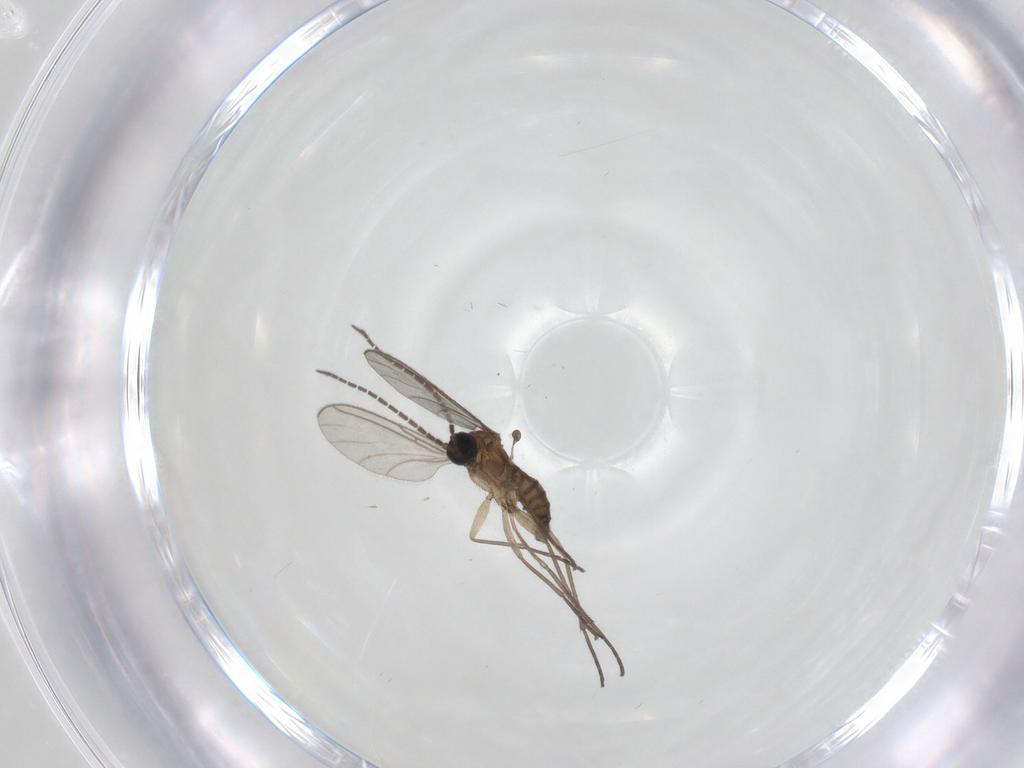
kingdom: Animalia
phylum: Arthropoda
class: Insecta
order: Diptera
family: Sciaridae
